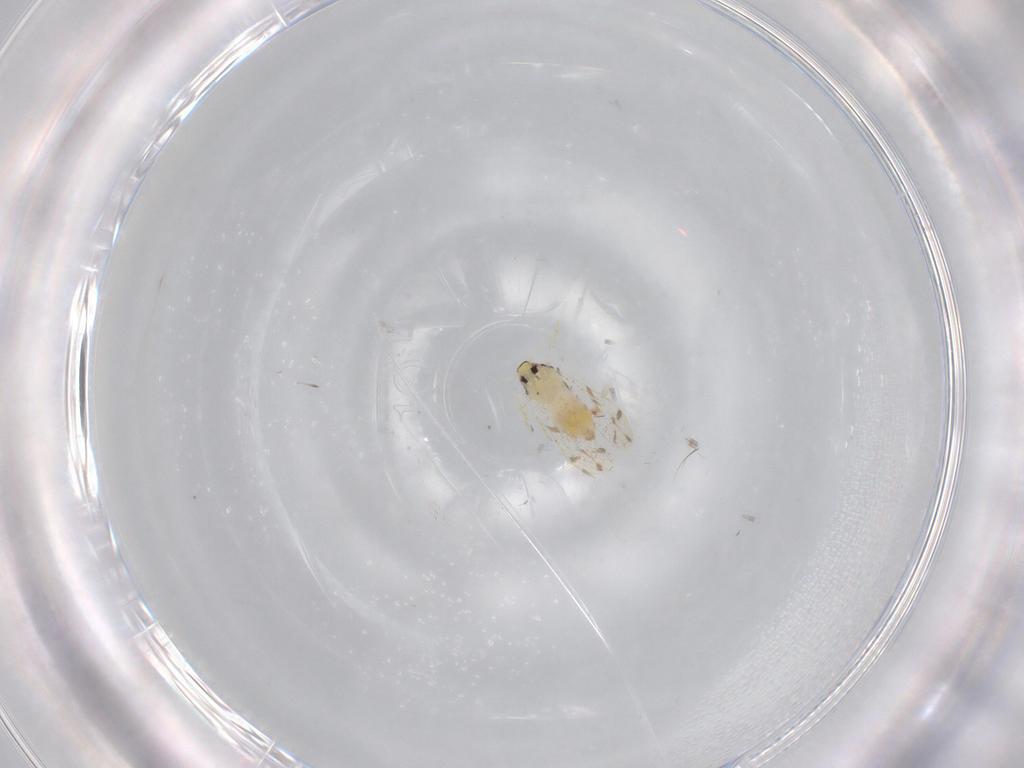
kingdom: Animalia
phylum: Arthropoda
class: Insecta
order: Hemiptera
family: Aleyrodidae
